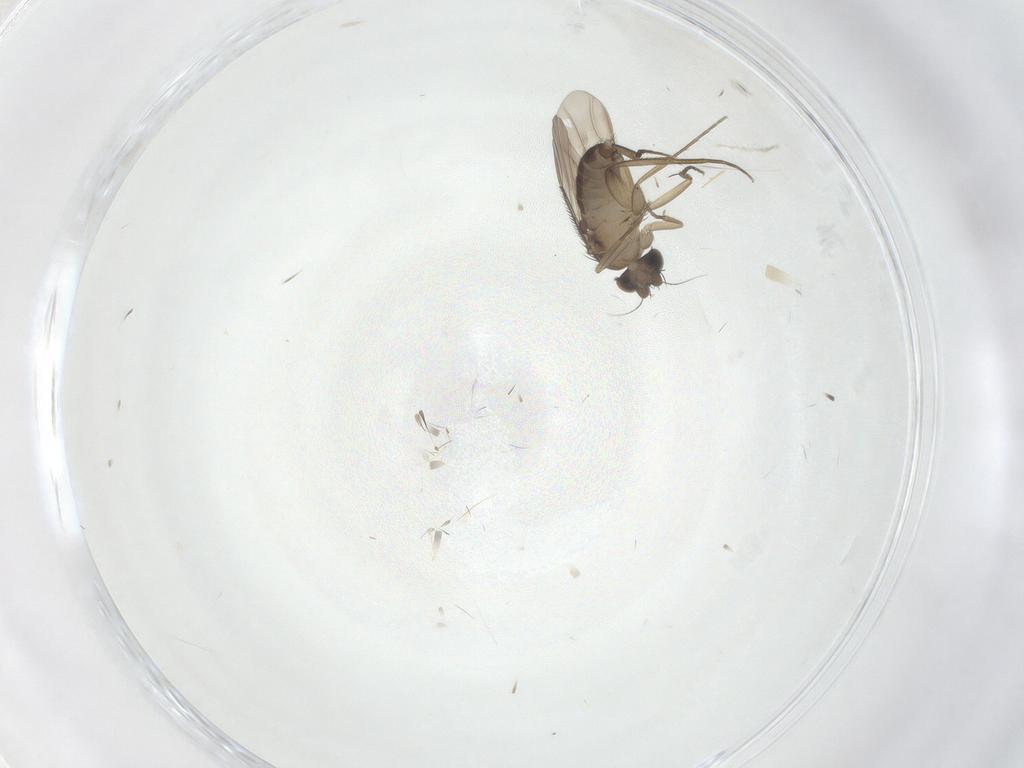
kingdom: Animalia
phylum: Arthropoda
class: Insecta
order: Diptera
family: Phoridae
